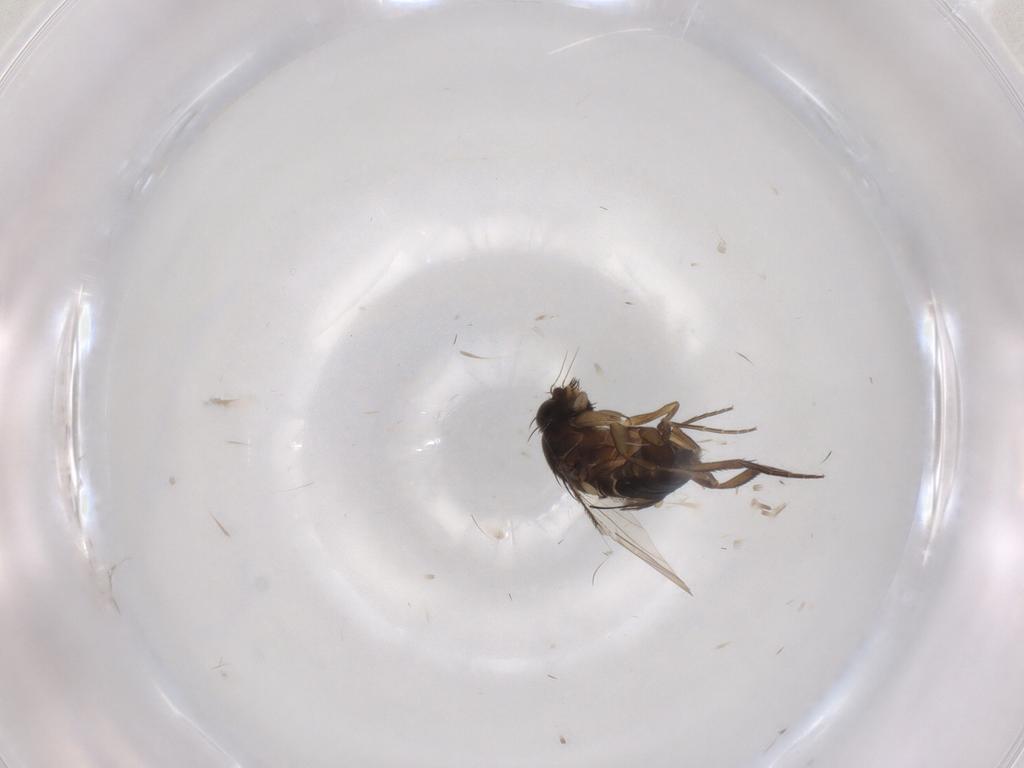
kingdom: Animalia
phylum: Arthropoda
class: Insecta
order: Diptera
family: Phoridae
